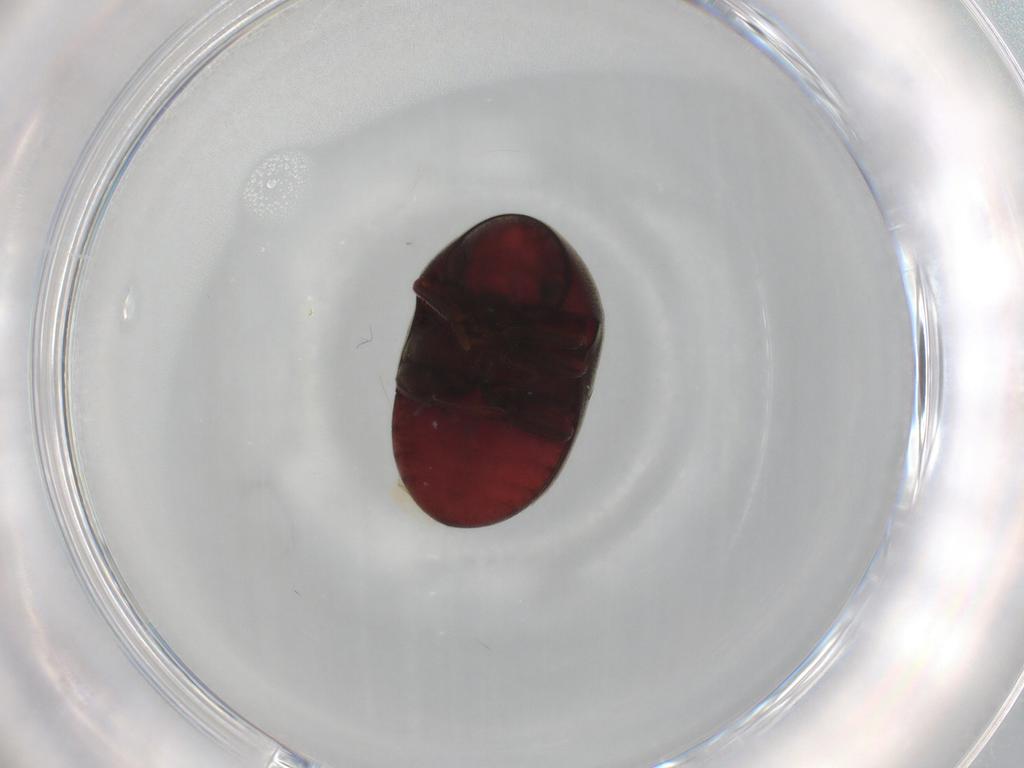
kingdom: Animalia
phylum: Arthropoda
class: Insecta
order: Coleoptera
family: Ptinidae
